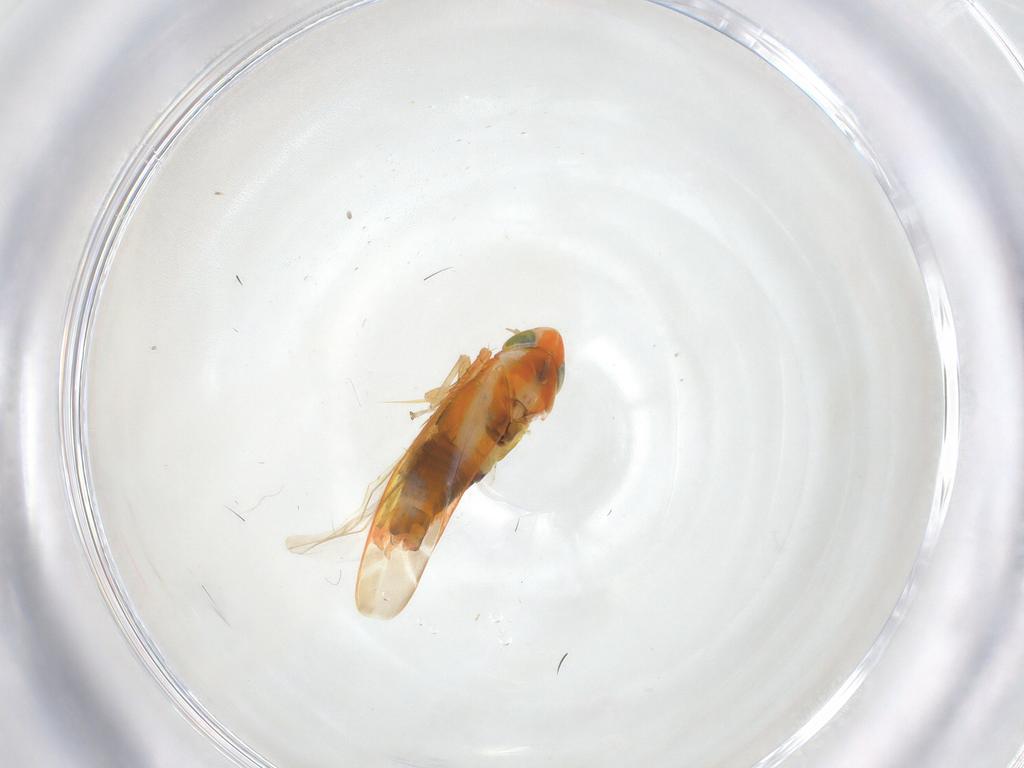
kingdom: Animalia
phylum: Arthropoda
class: Insecta
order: Hemiptera
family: Cicadellidae
